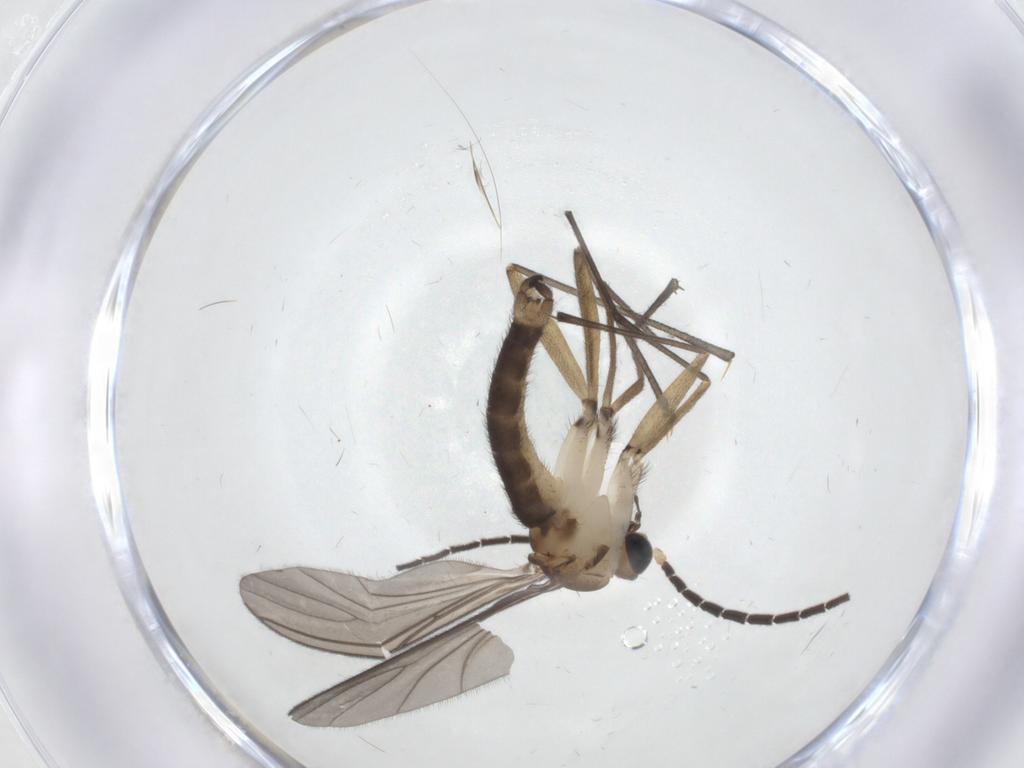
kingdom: Animalia
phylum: Arthropoda
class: Insecta
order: Diptera
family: Sciaridae
